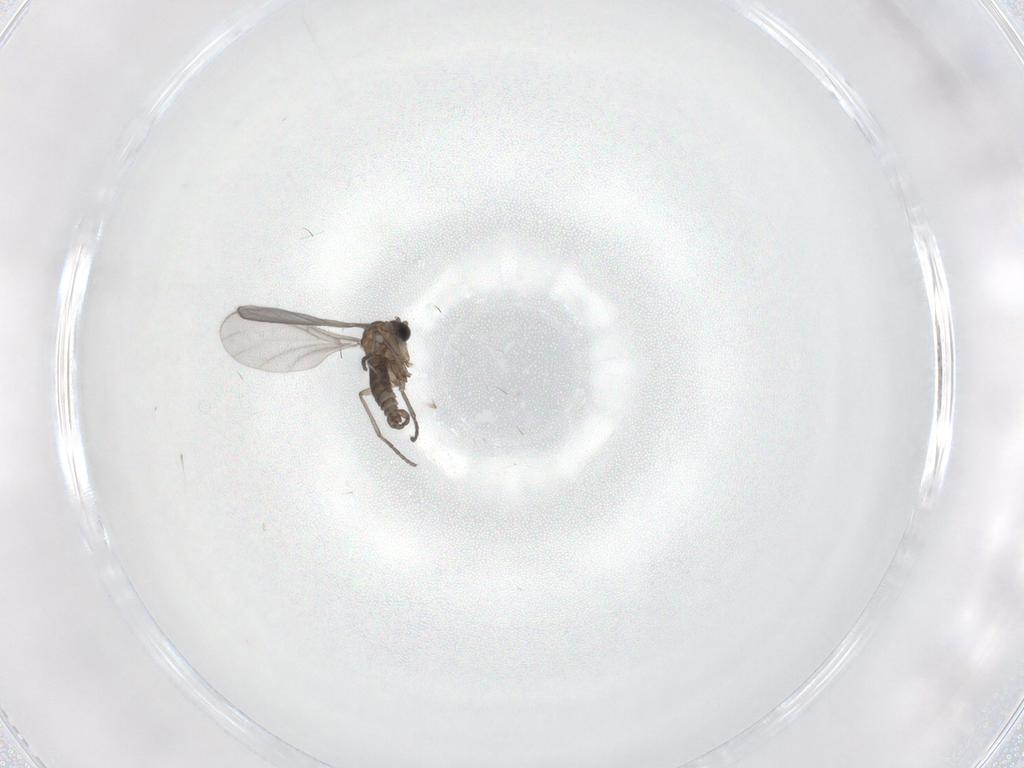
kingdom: Animalia
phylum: Arthropoda
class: Insecta
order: Diptera
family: Sciaridae
